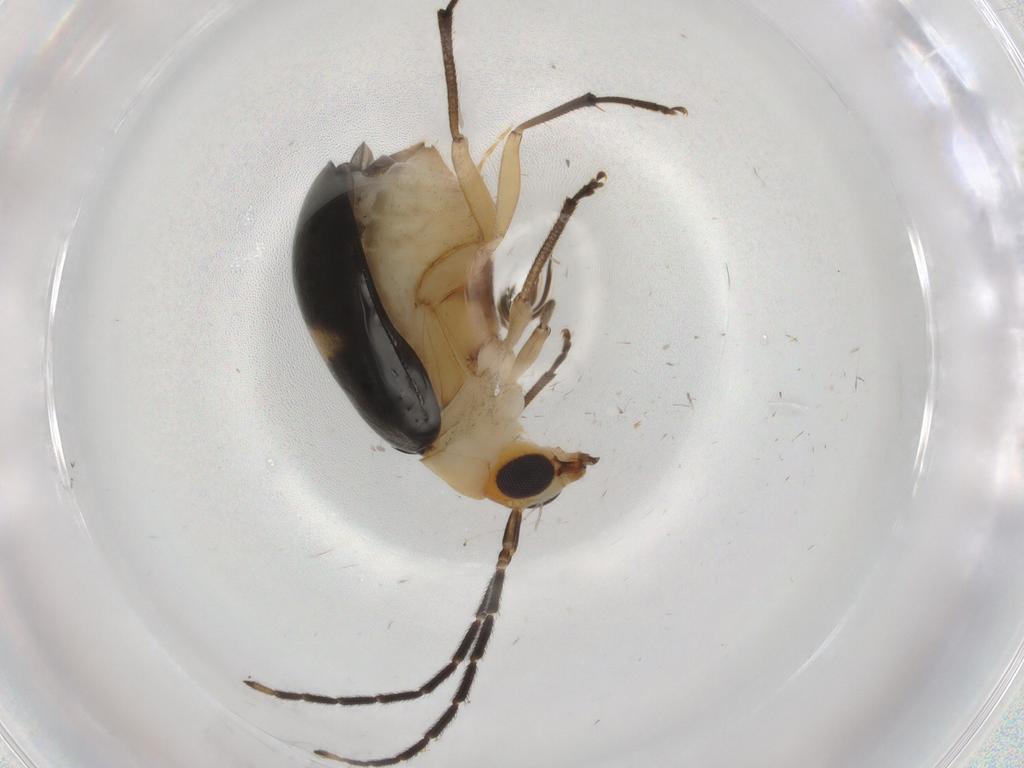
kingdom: Animalia
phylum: Arthropoda
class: Insecta
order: Coleoptera
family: Chrysomelidae
